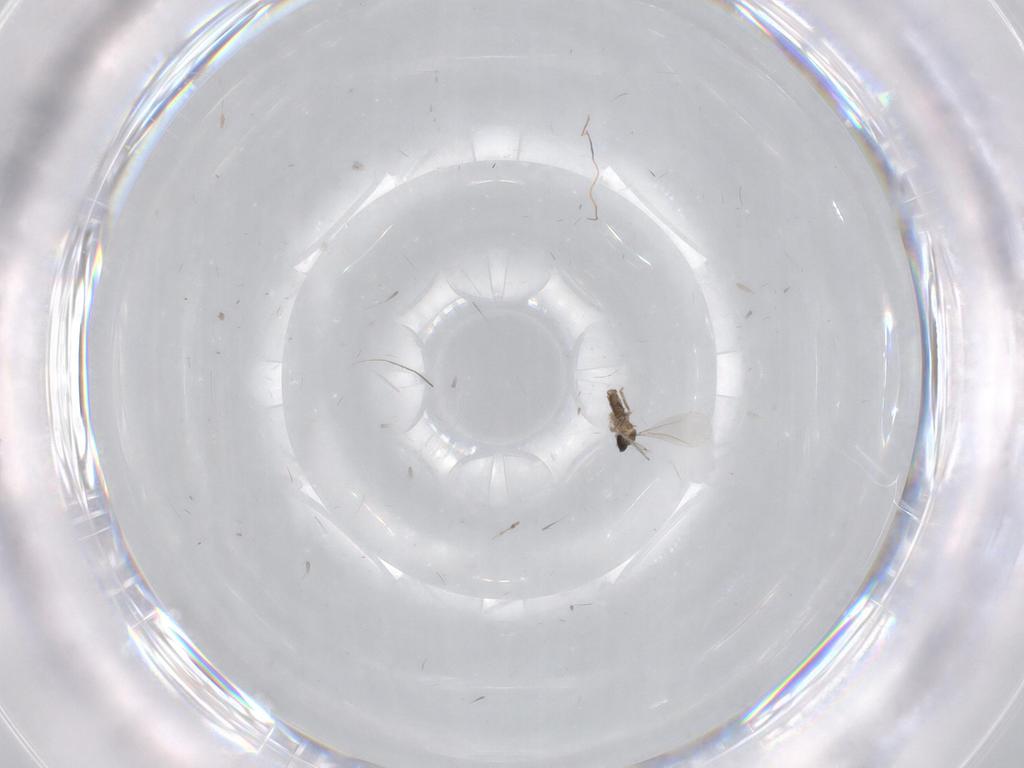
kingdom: Animalia
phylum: Arthropoda
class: Insecta
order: Diptera
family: Cecidomyiidae
